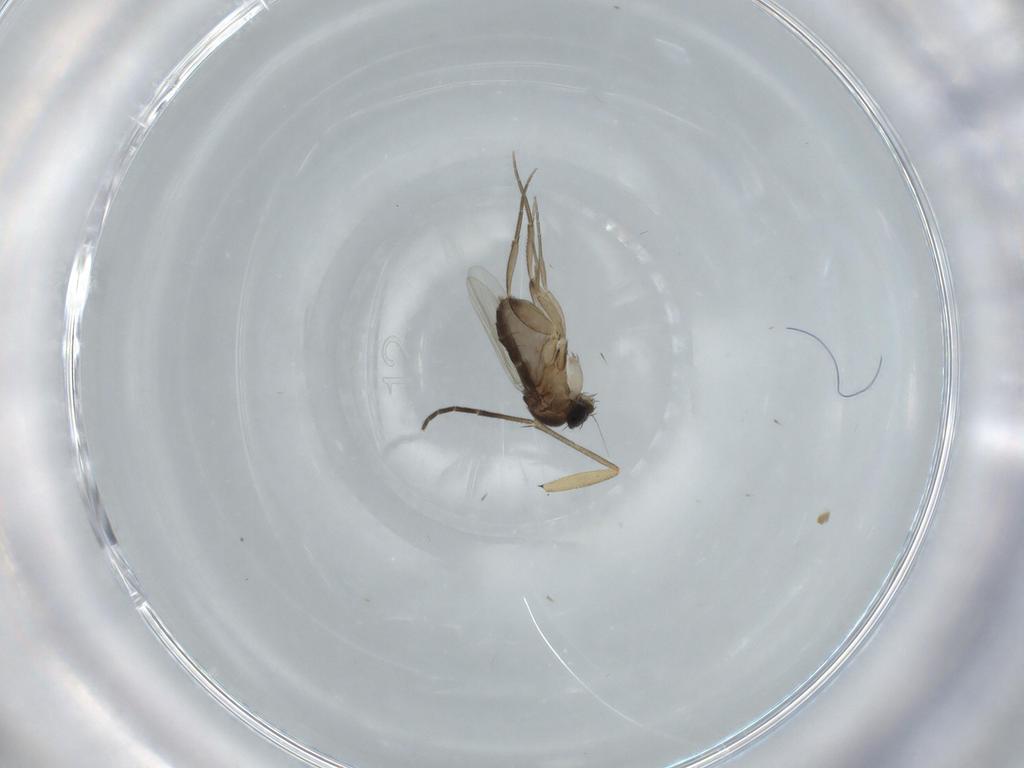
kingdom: Animalia
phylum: Arthropoda
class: Insecta
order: Diptera
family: Phoridae
